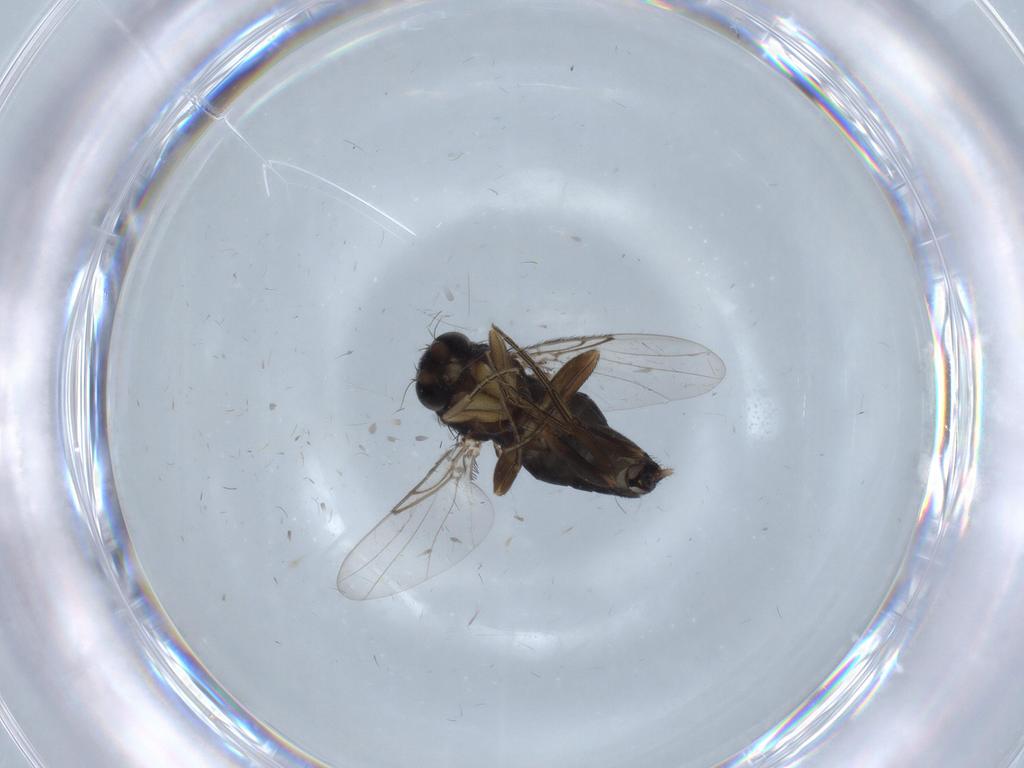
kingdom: Animalia
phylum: Arthropoda
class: Insecta
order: Diptera
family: Phoridae
